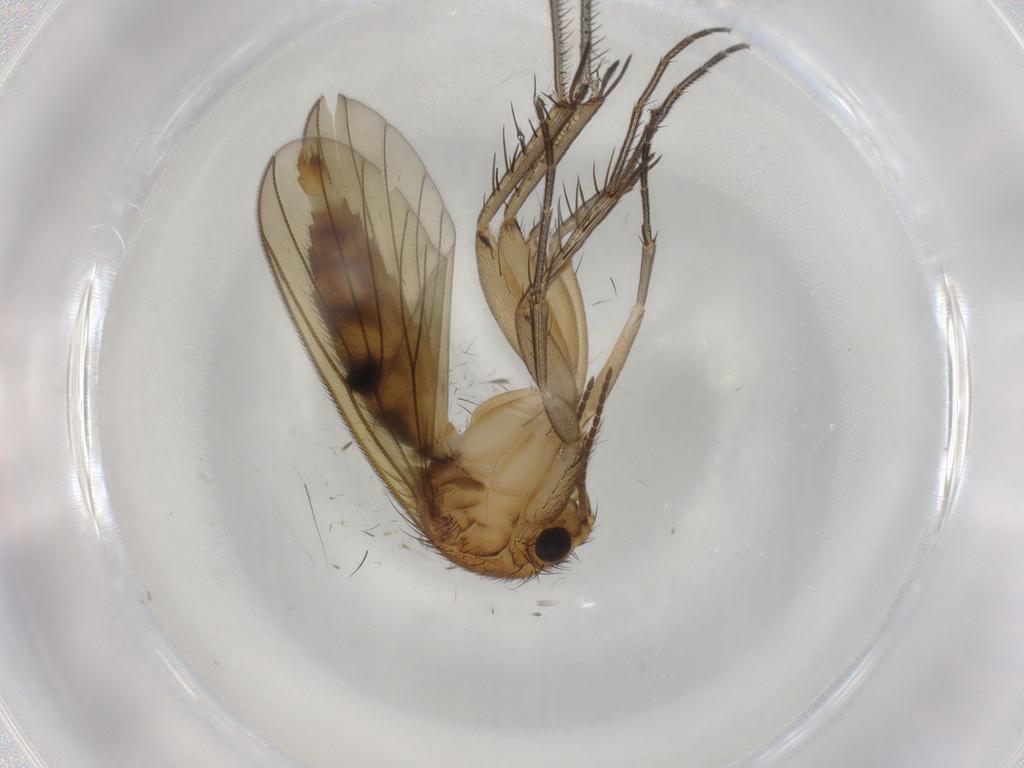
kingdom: Animalia
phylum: Arthropoda
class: Insecta
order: Diptera
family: Mycetophilidae
